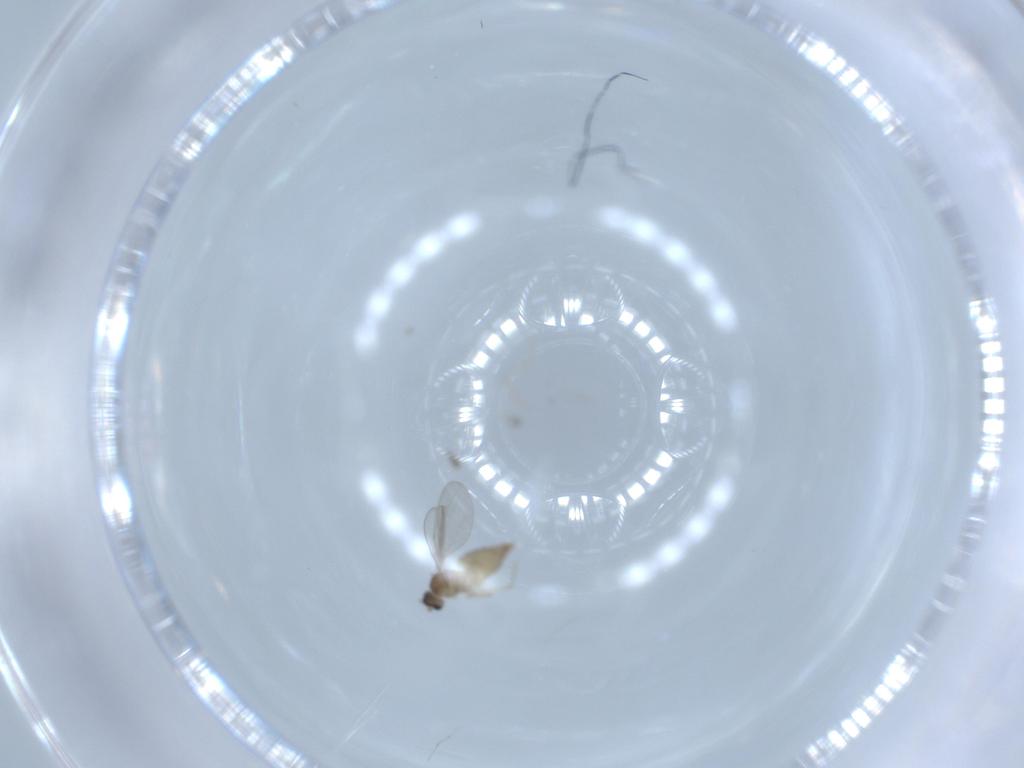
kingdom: Animalia
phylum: Arthropoda
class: Insecta
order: Diptera
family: Cecidomyiidae
